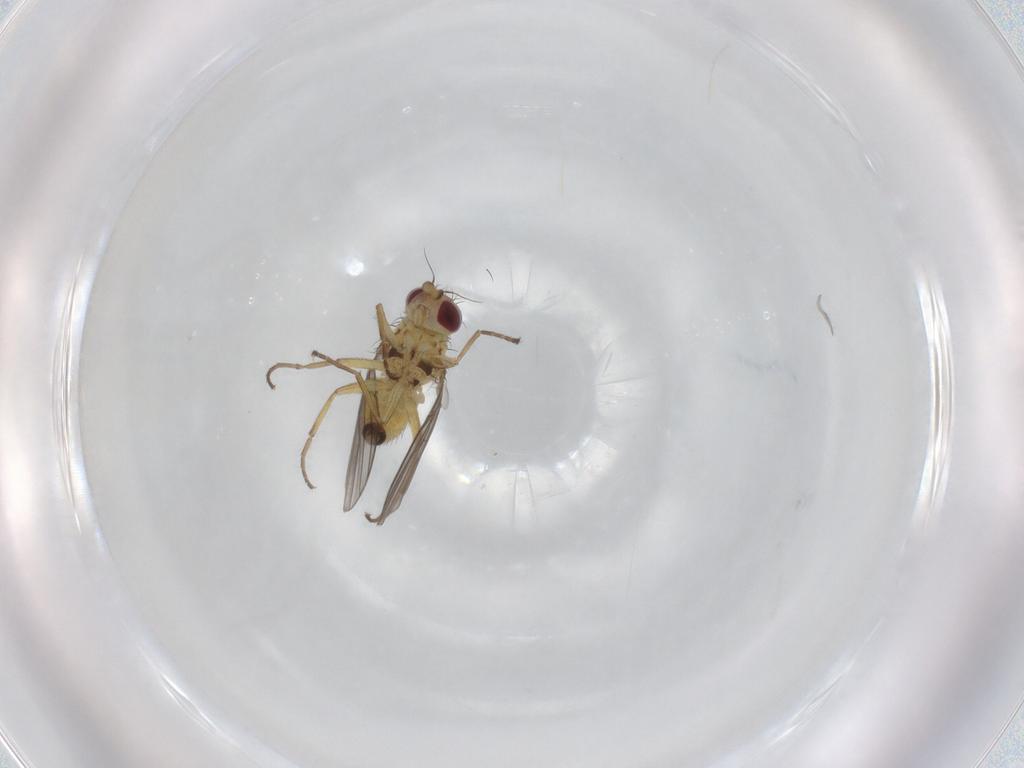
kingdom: Animalia
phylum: Arthropoda
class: Insecta
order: Diptera
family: Agromyzidae
